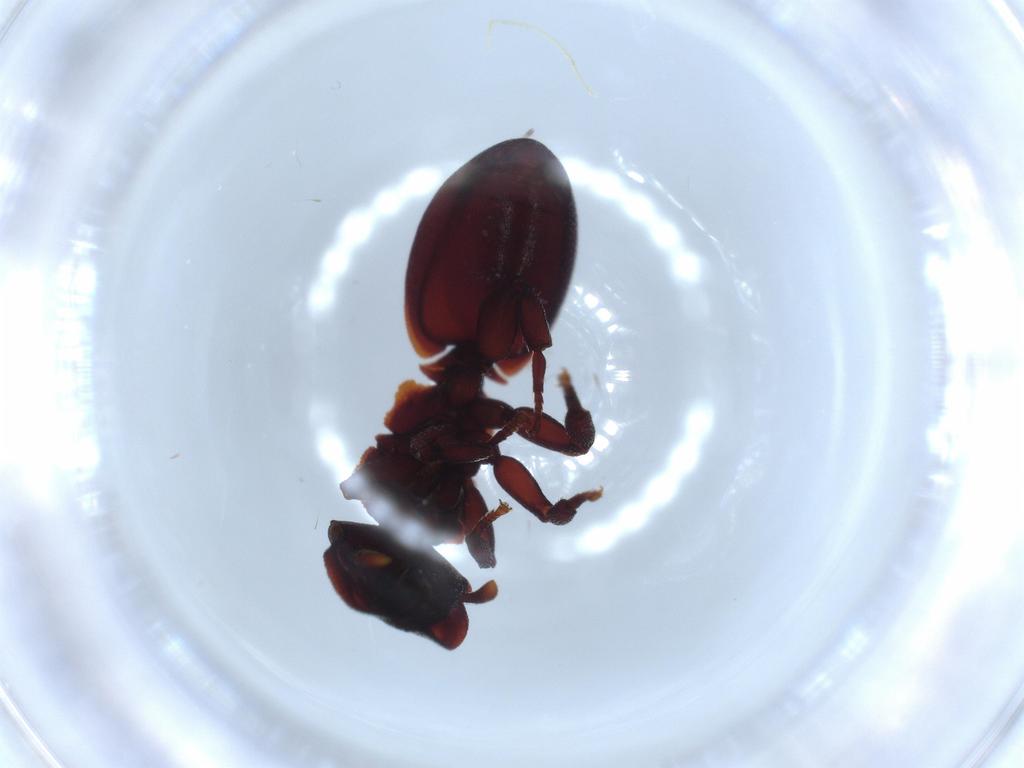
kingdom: Animalia
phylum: Arthropoda
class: Insecta
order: Hymenoptera
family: Formicidae
